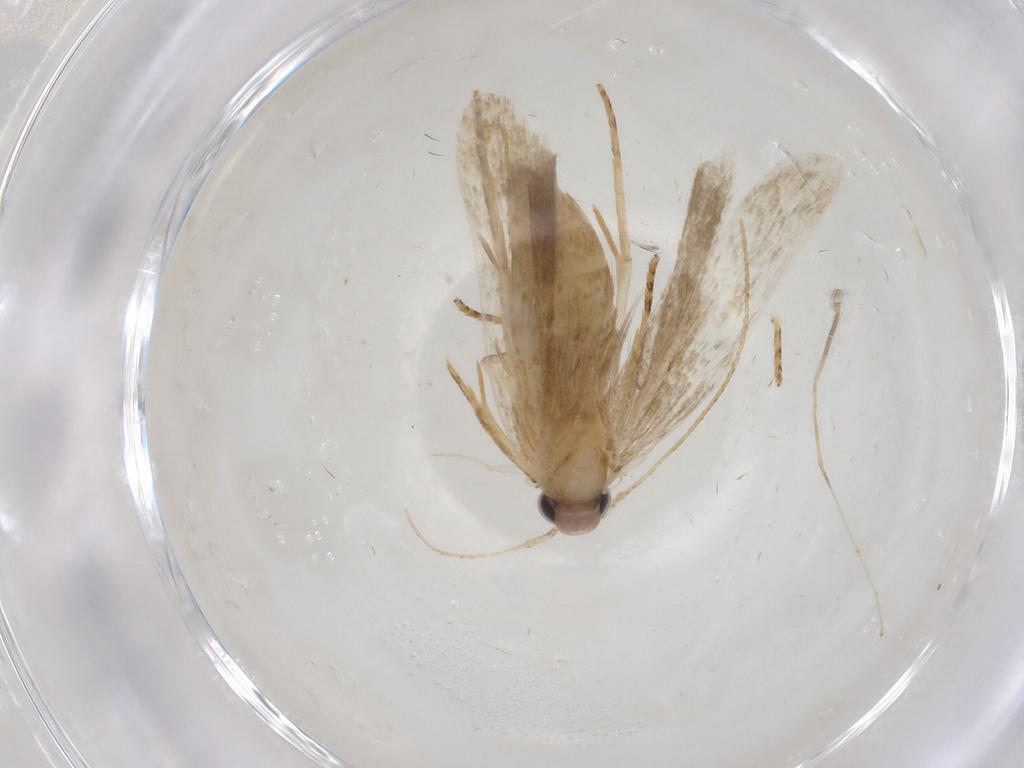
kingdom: Animalia
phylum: Arthropoda
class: Insecta
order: Lepidoptera
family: Gelechiidae
